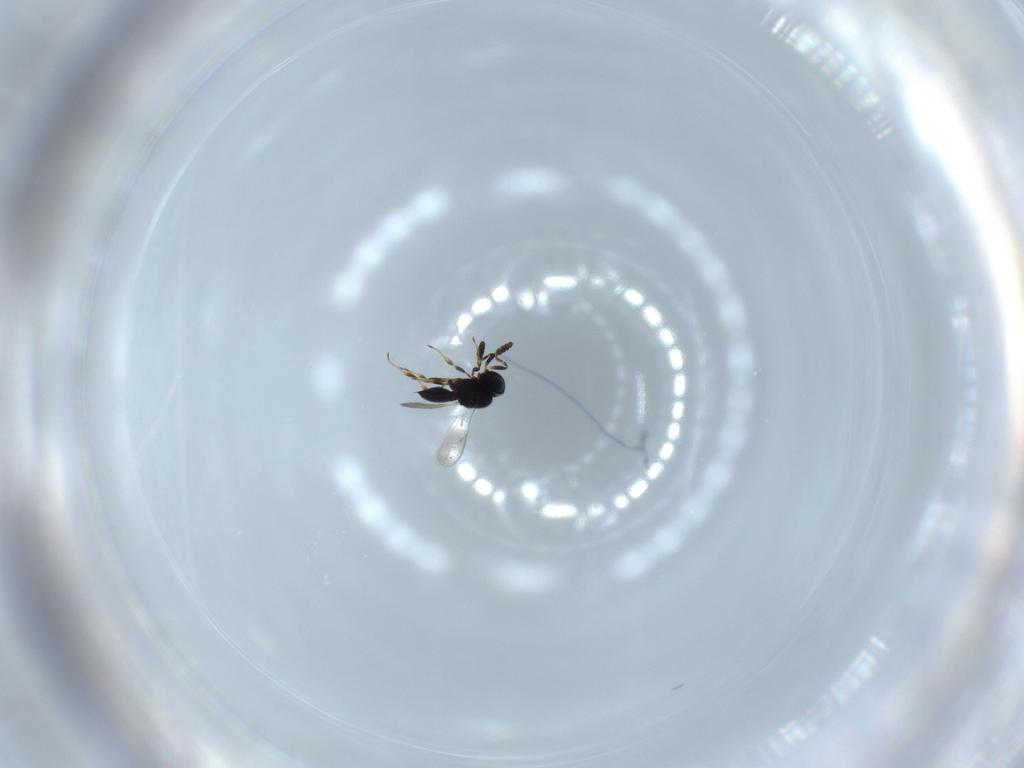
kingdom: Animalia
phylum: Arthropoda
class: Insecta
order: Hymenoptera
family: Scelionidae
